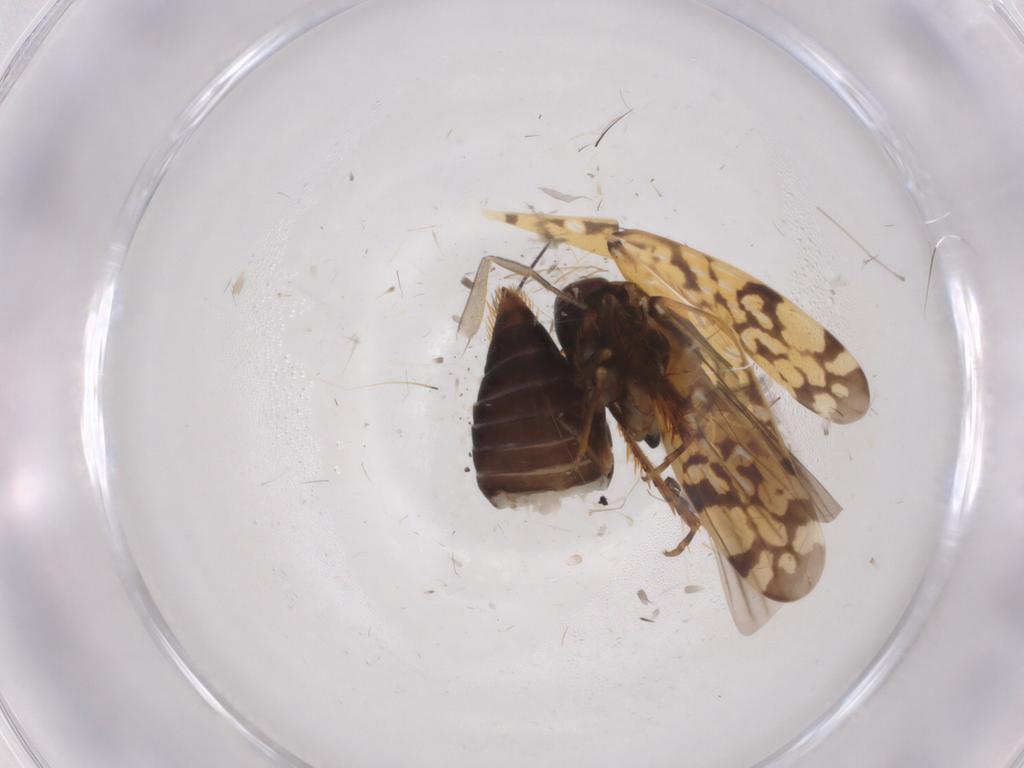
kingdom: Animalia
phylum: Arthropoda
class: Insecta
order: Hemiptera
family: Cicadellidae
